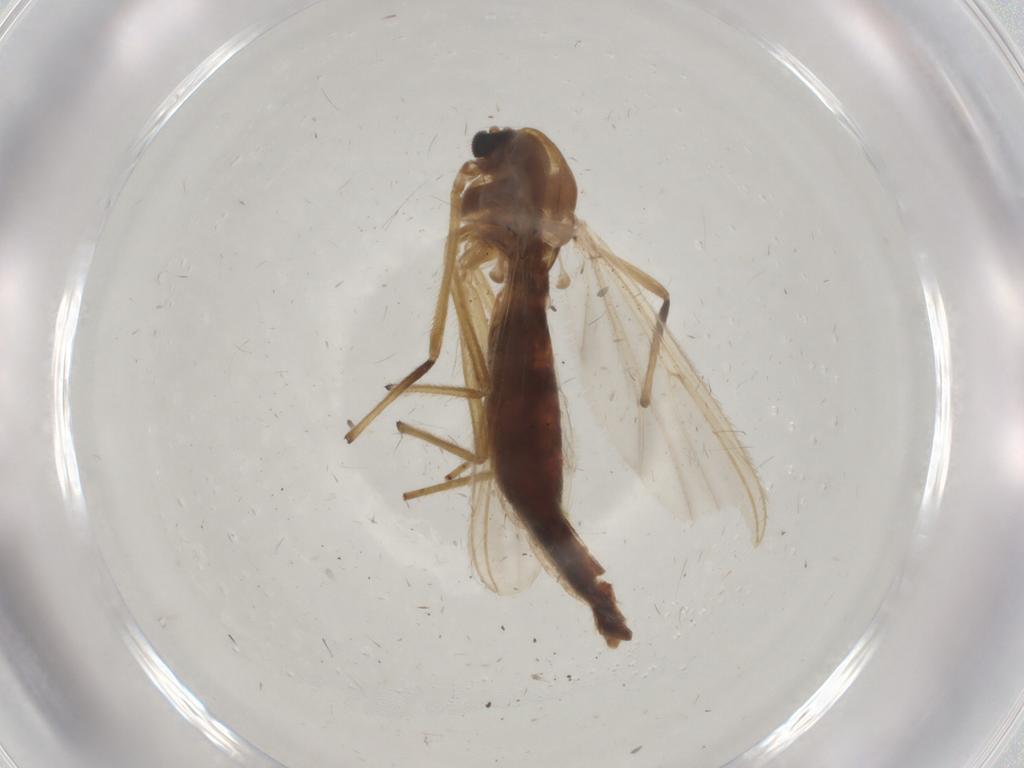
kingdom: Animalia
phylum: Arthropoda
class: Insecta
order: Diptera
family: Chironomidae
